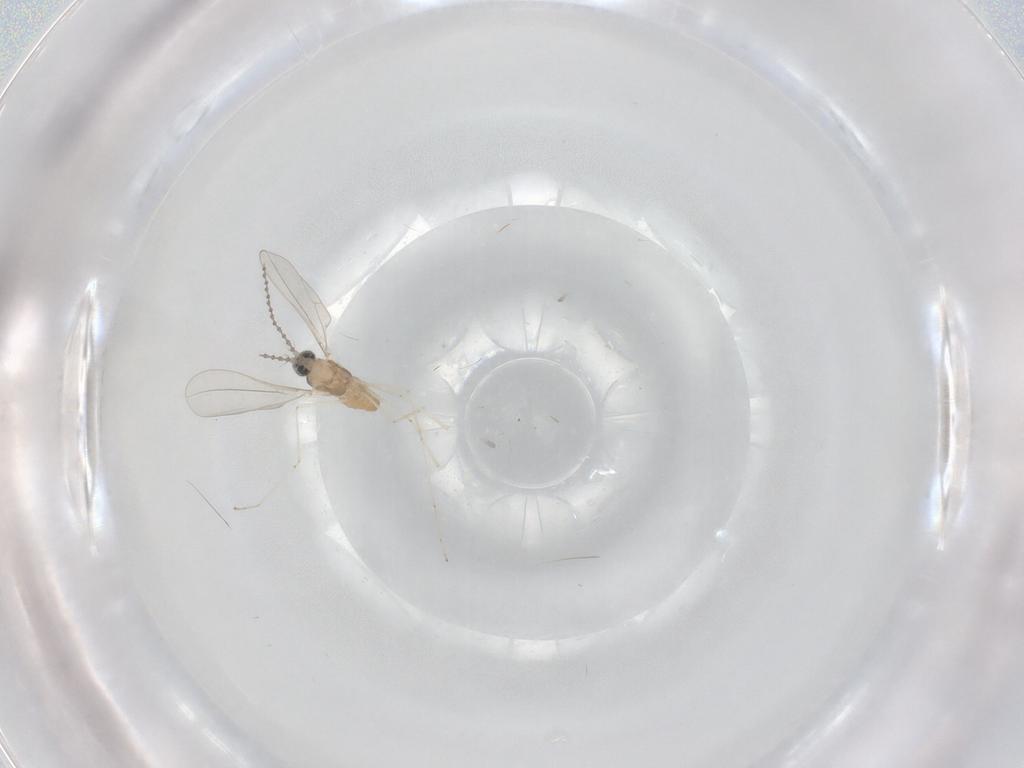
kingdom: Animalia
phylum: Arthropoda
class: Insecta
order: Diptera
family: Cecidomyiidae
